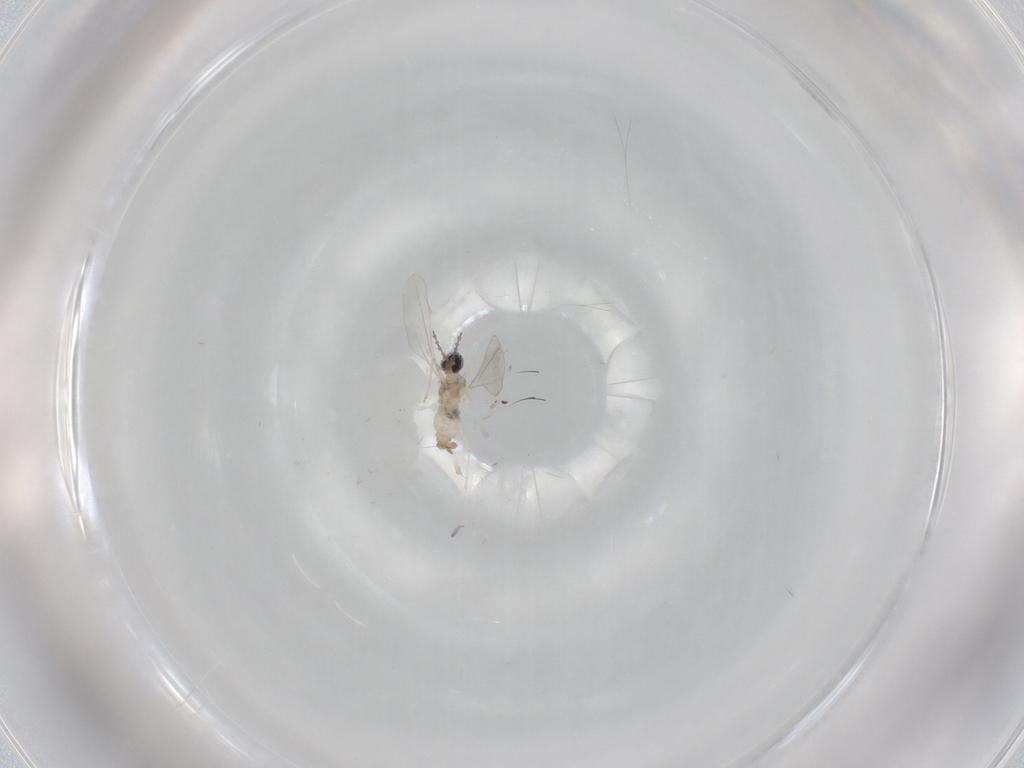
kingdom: Animalia
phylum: Arthropoda
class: Insecta
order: Diptera
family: Cecidomyiidae
